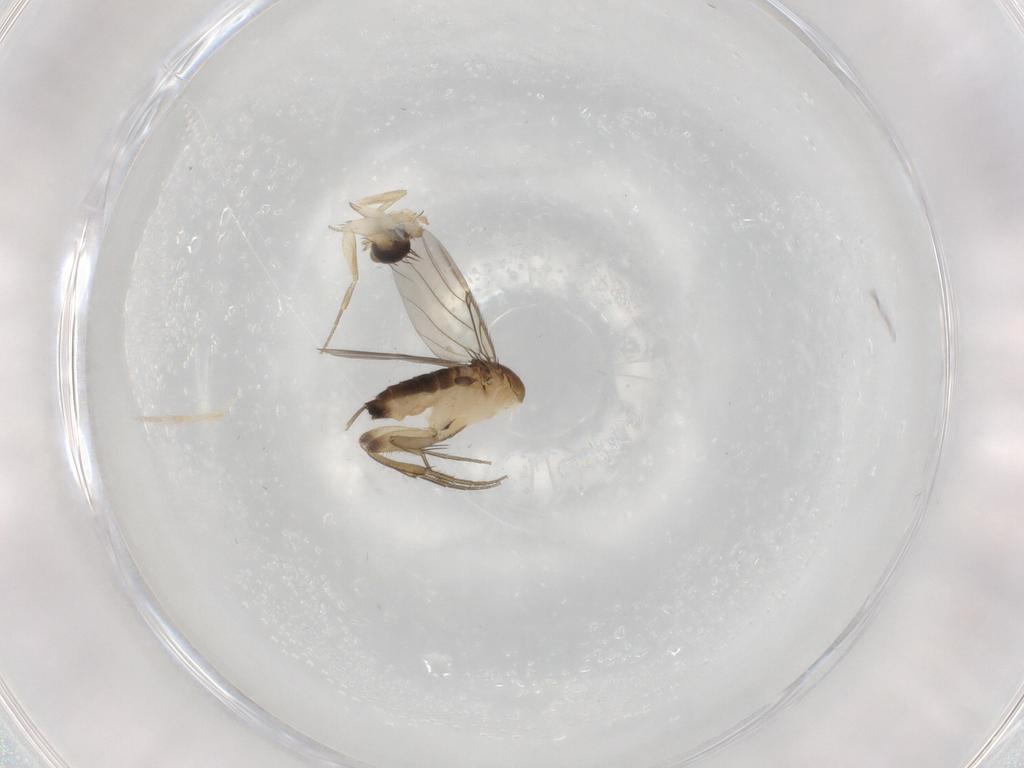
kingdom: Animalia
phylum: Arthropoda
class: Insecta
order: Diptera
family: Phoridae
